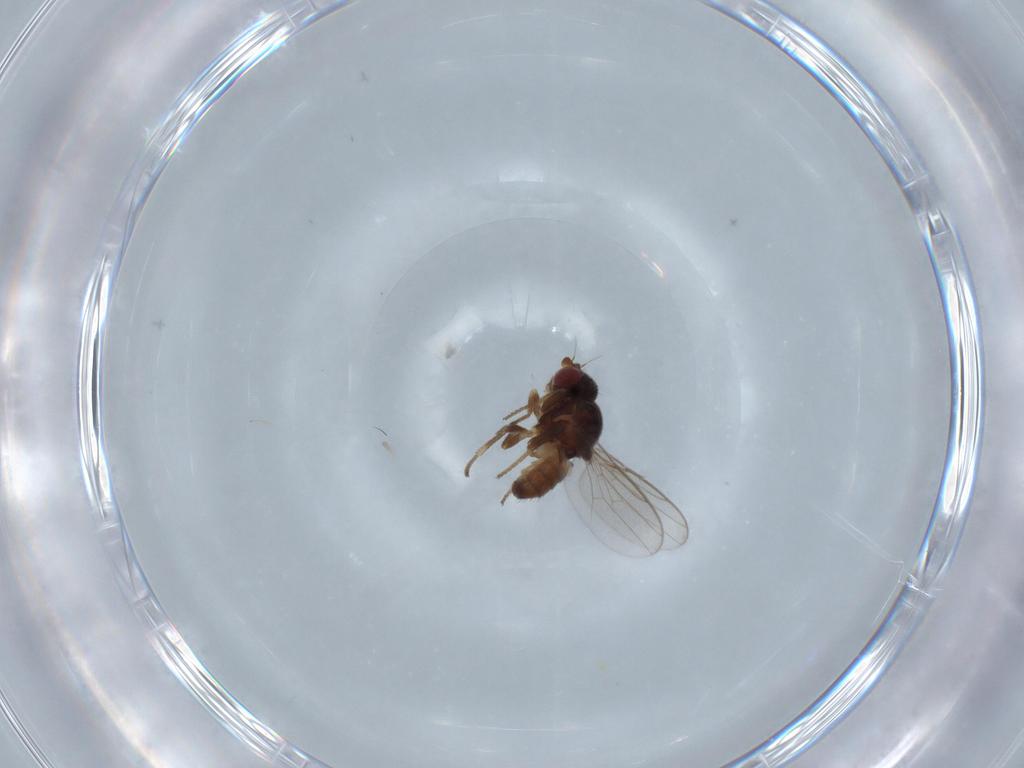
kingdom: Animalia
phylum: Arthropoda
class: Insecta
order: Diptera
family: Chloropidae
